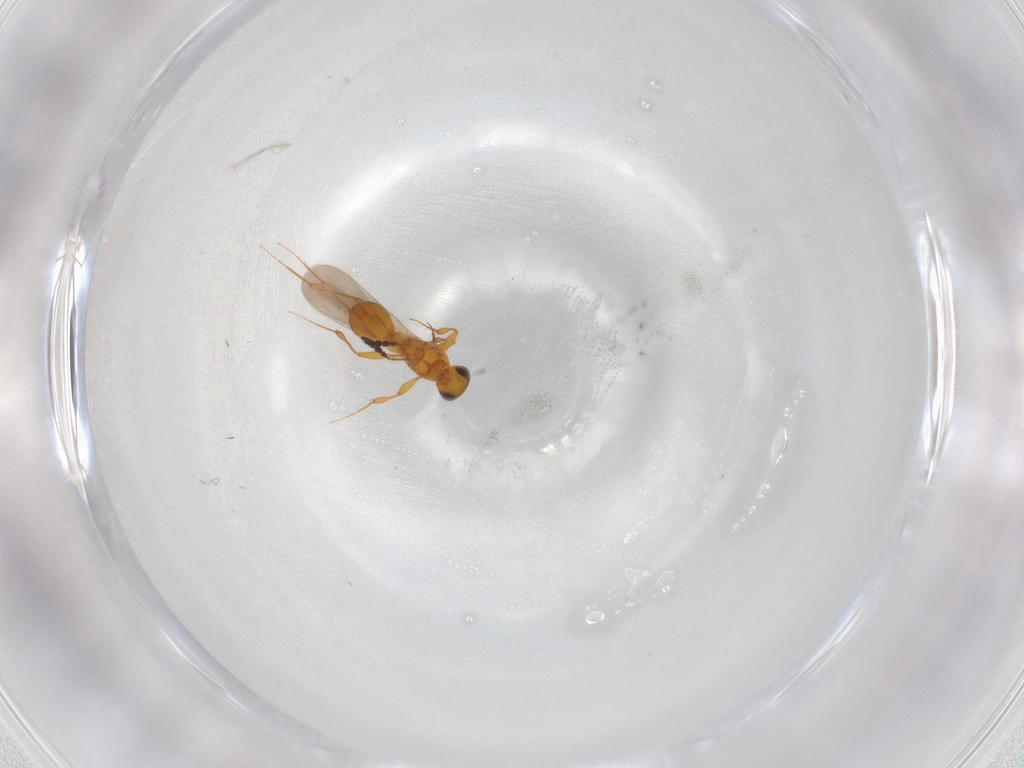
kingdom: Animalia
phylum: Arthropoda
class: Insecta
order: Hymenoptera
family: Platygastridae
